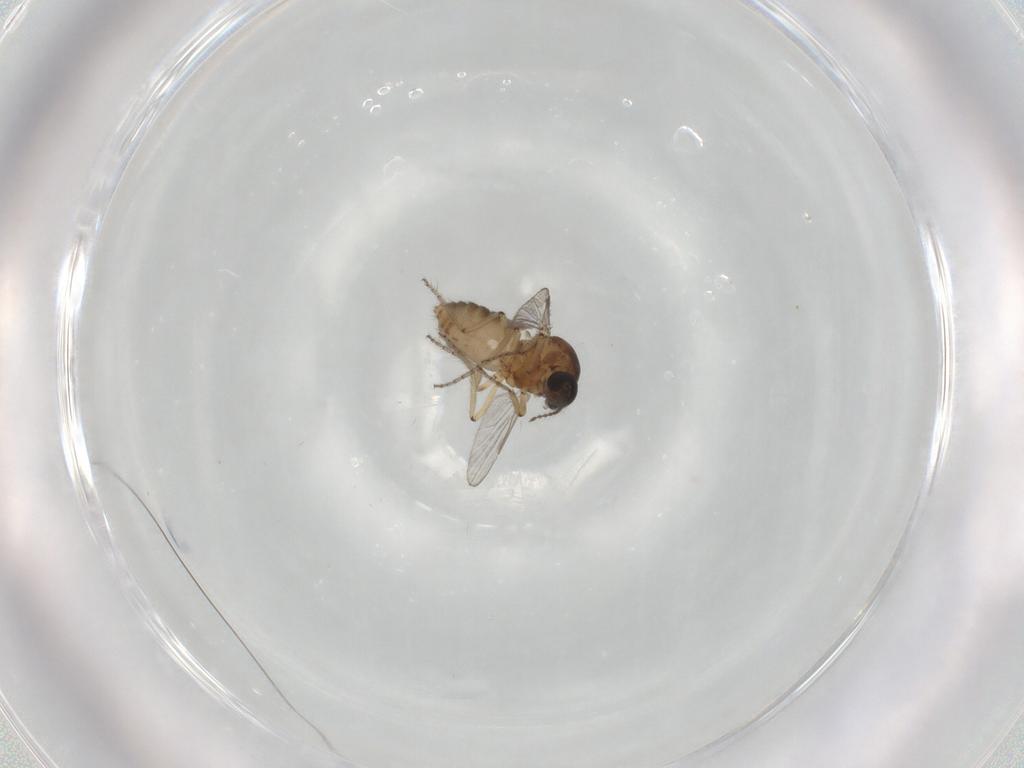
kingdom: Animalia
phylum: Arthropoda
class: Insecta
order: Diptera
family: Ceratopogonidae
